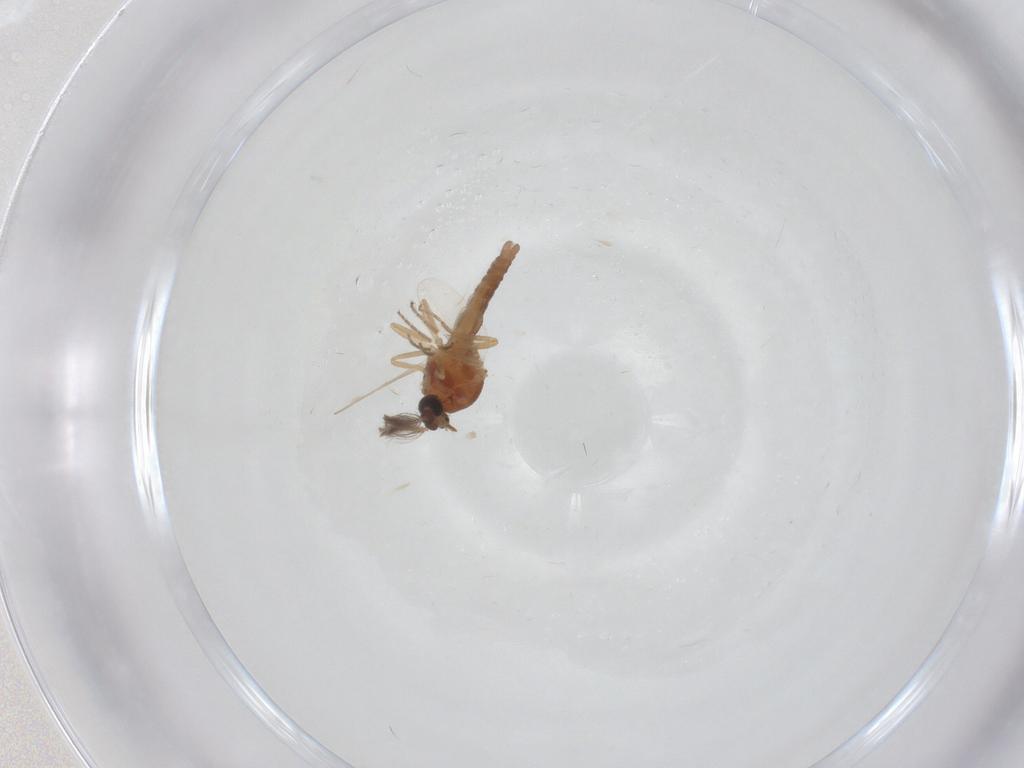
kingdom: Animalia
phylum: Arthropoda
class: Insecta
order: Diptera
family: Ceratopogonidae
